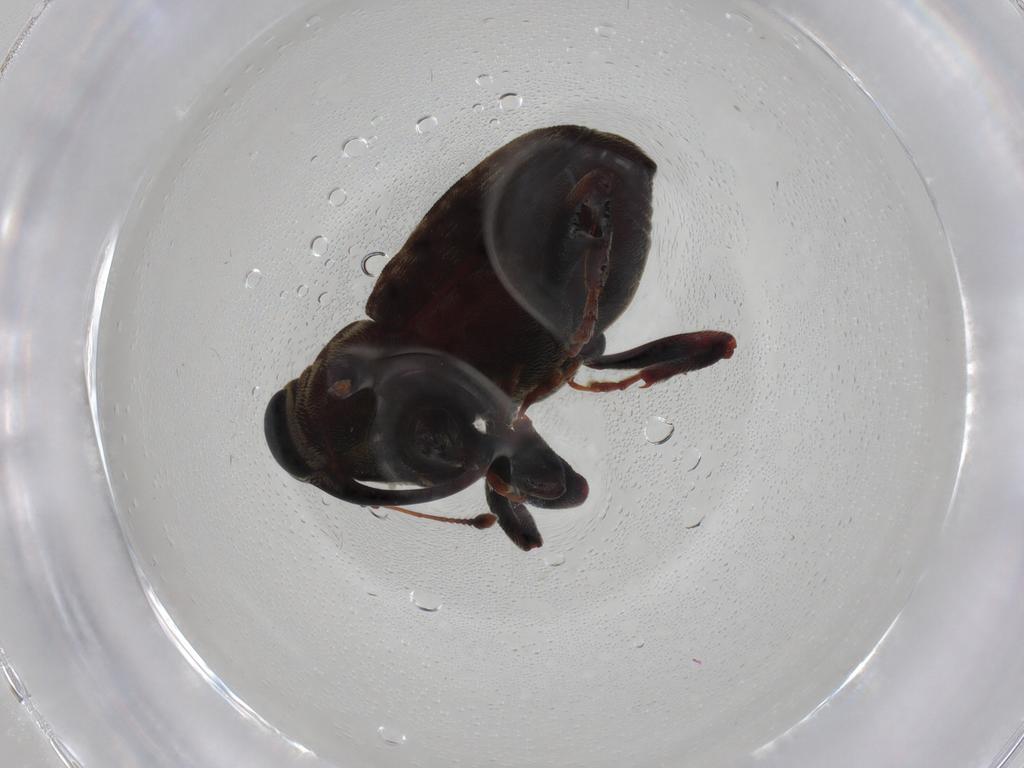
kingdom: Animalia
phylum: Arthropoda
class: Insecta
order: Coleoptera
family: Curculionidae
